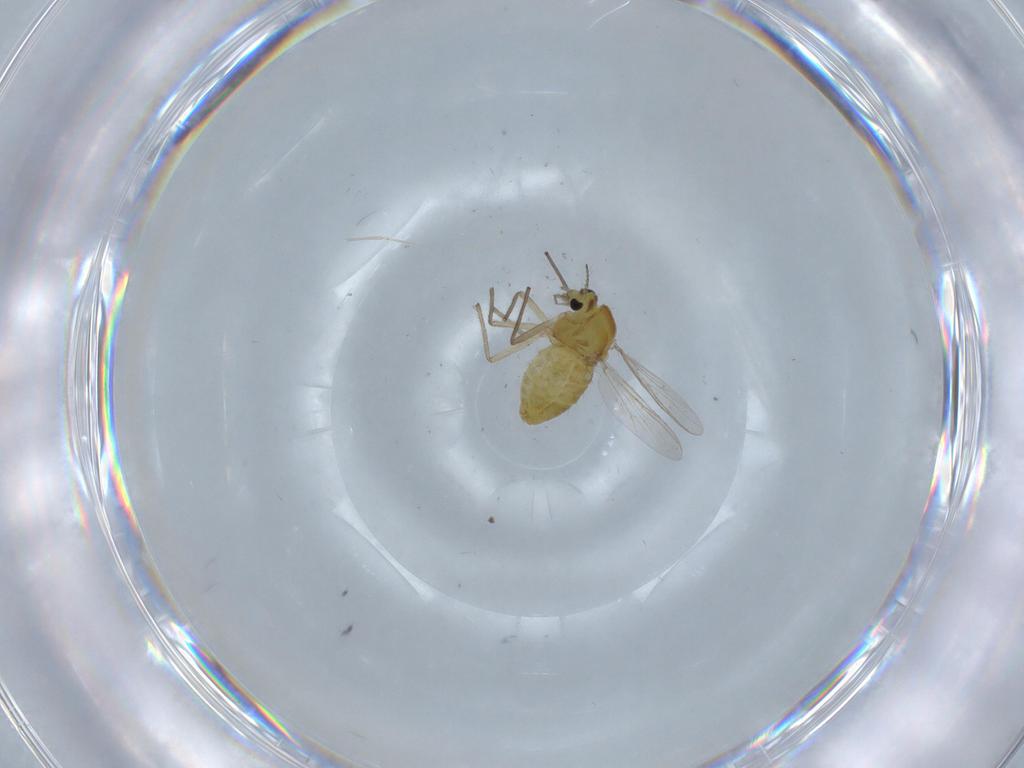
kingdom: Animalia
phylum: Arthropoda
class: Insecta
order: Diptera
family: Chironomidae
